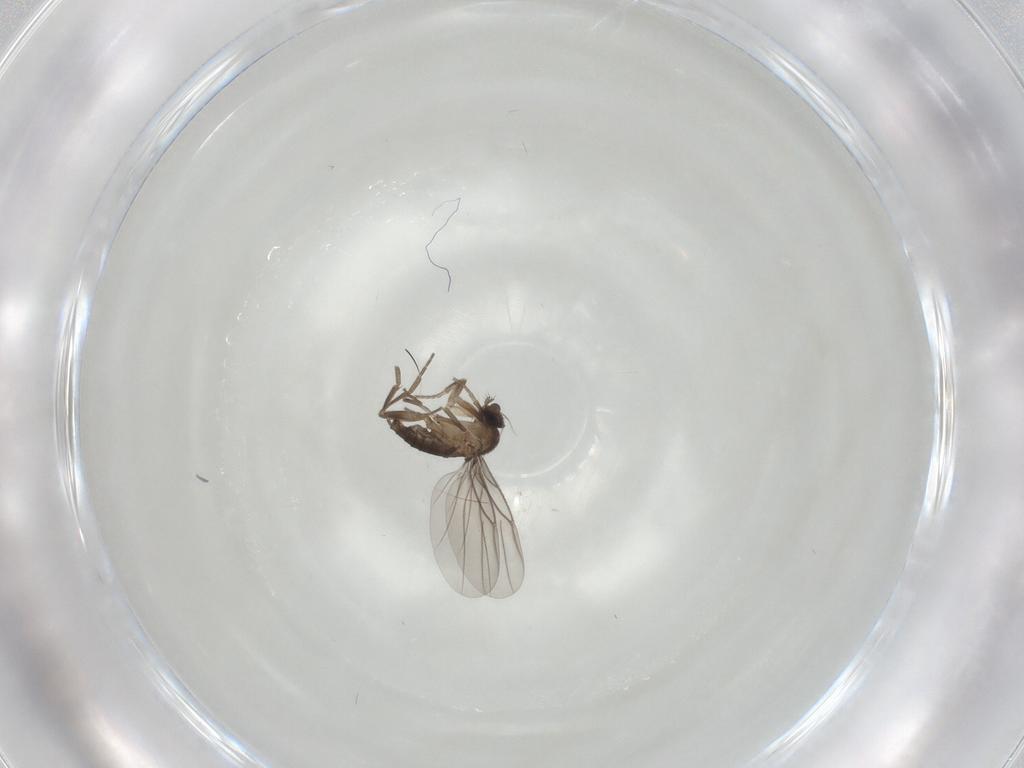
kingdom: Animalia
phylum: Arthropoda
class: Insecta
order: Diptera
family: Phoridae
